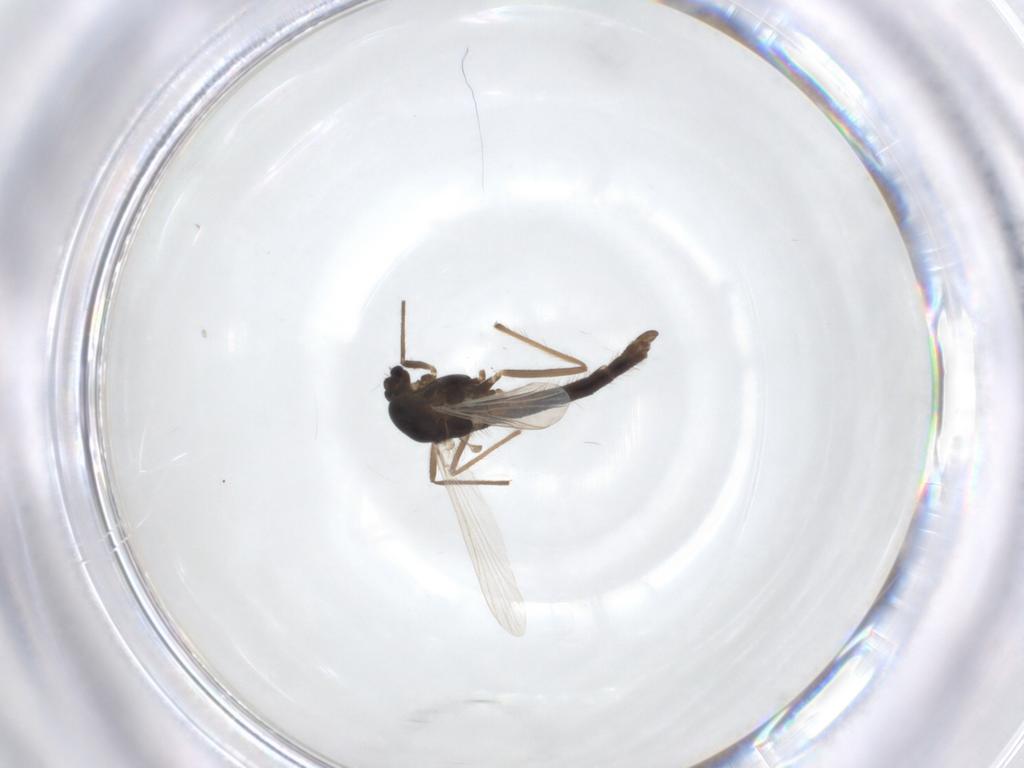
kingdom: Animalia
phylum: Arthropoda
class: Insecta
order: Diptera
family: Chironomidae
